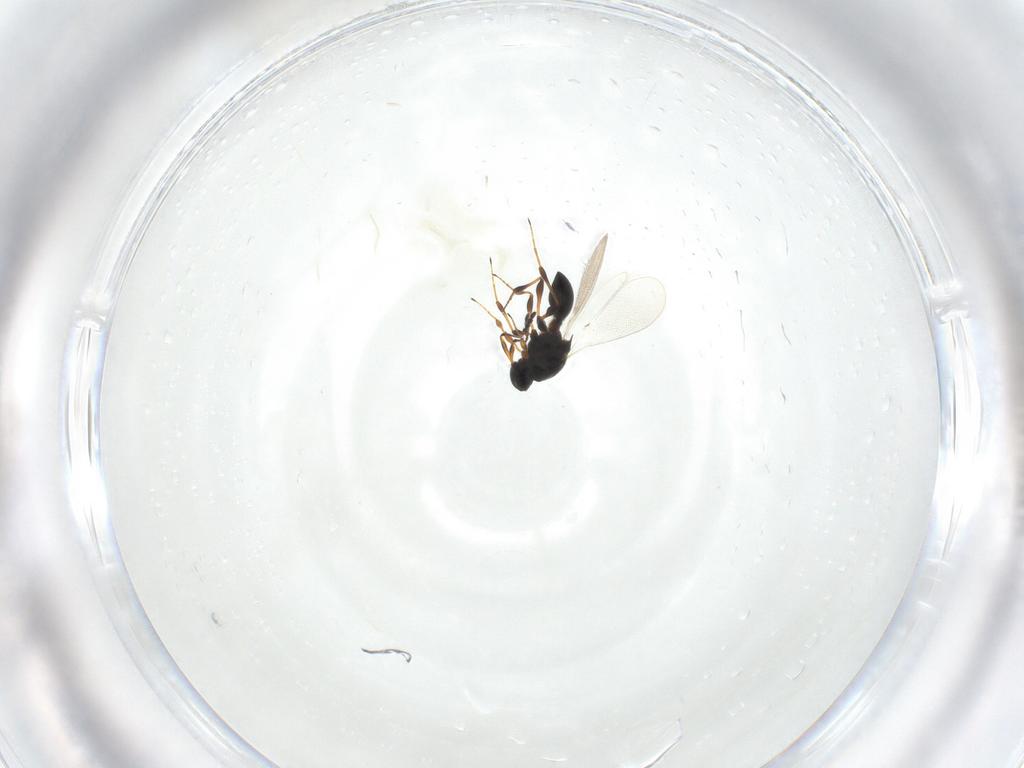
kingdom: Animalia
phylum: Arthropoda
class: Insecta
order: Hymenoptera
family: Platygastridae
